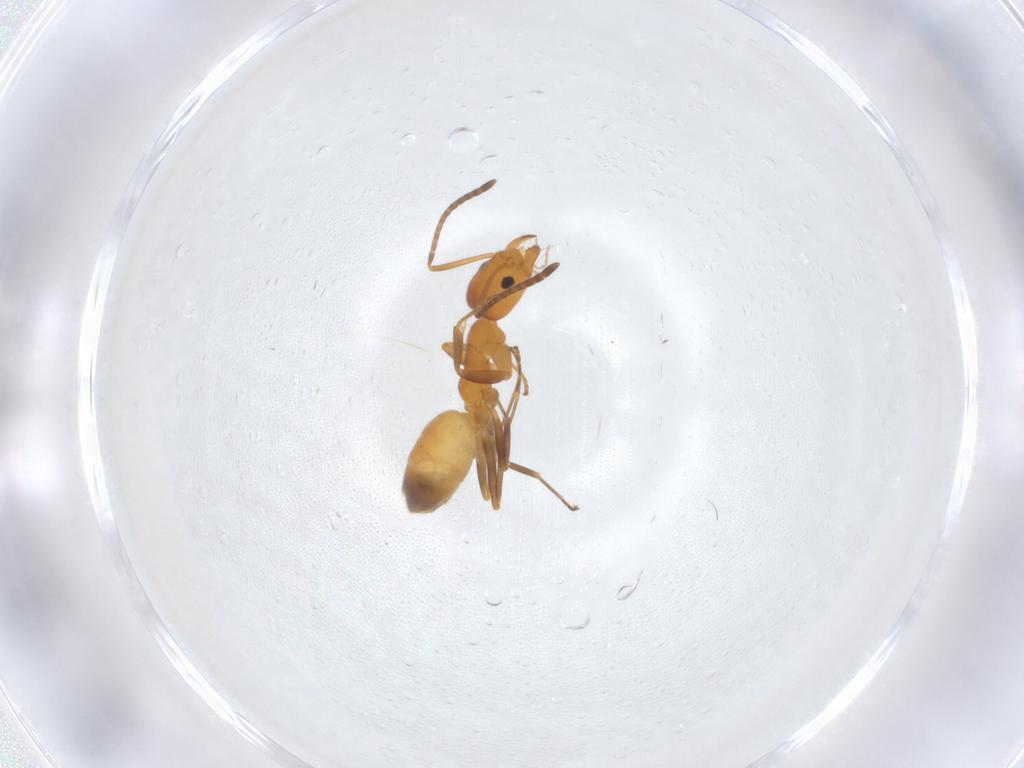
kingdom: Animalia
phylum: Arthropoda
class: Insecta
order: Hymenoptera
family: Formicidae
